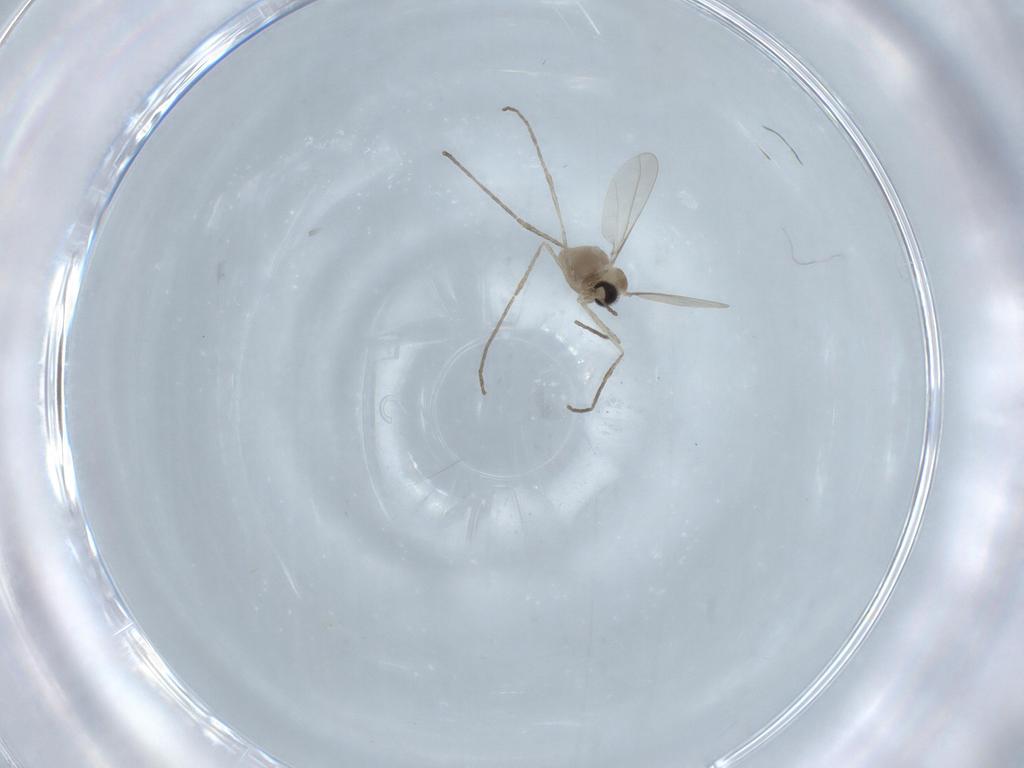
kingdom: Animalia
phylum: Arthropoda
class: Insecta
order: Diptera
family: Cecidomyiidae
